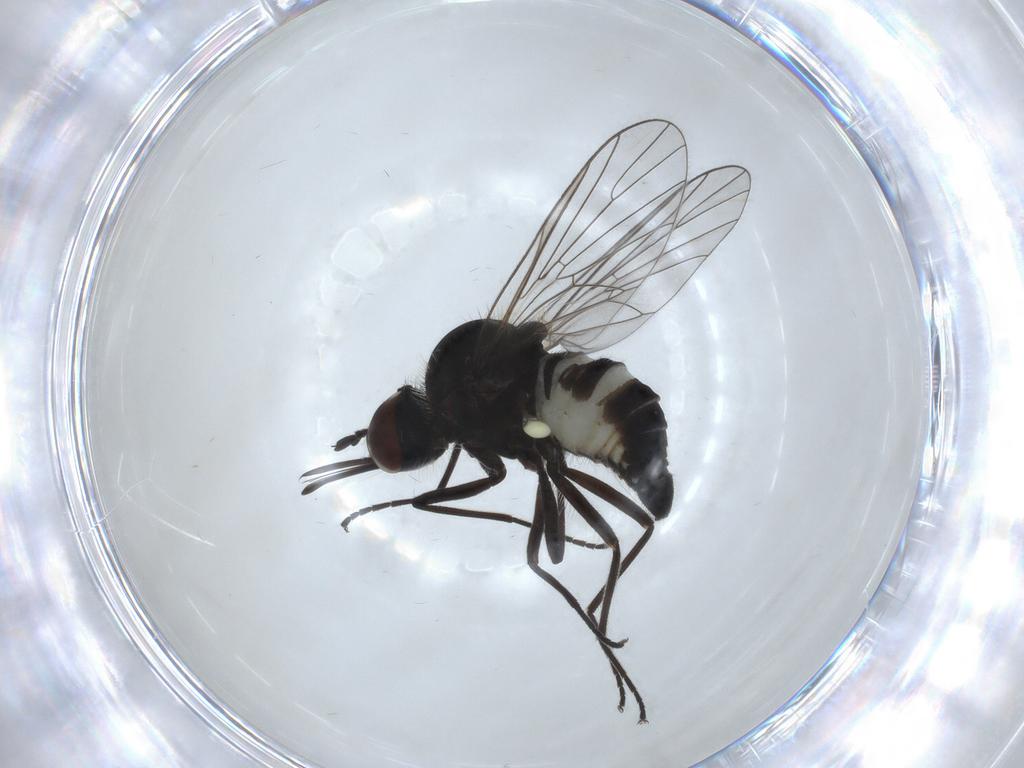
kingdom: Animalia
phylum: Arthropoda
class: Insecta
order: Diptera
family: Bombyliidae
